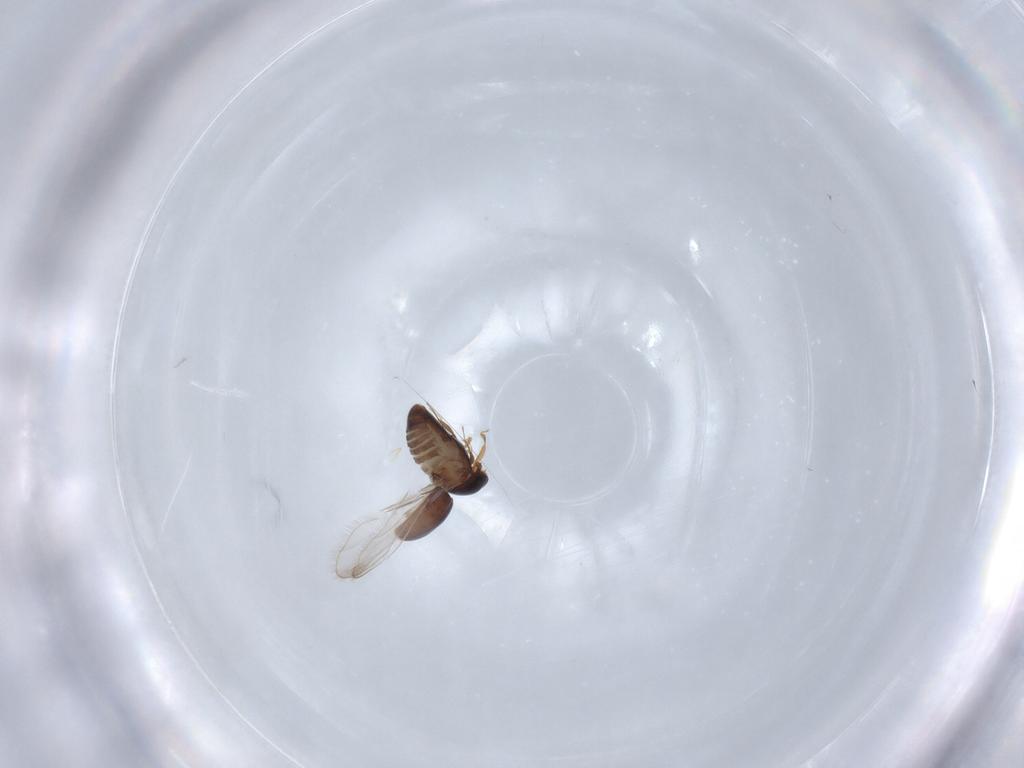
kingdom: Animalia
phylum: Arthropoda
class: Insecta
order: Coleoptera
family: Corylophidae
